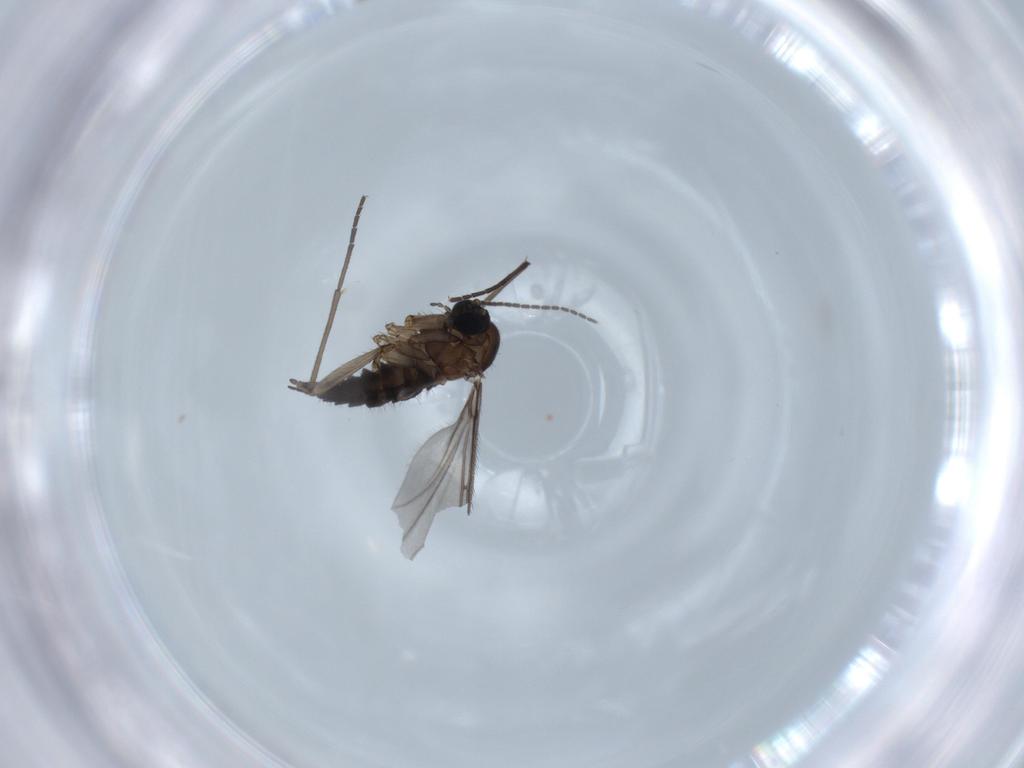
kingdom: Animalia
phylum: Arthropoda
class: Insecta
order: Diptera
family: Sciaridae
